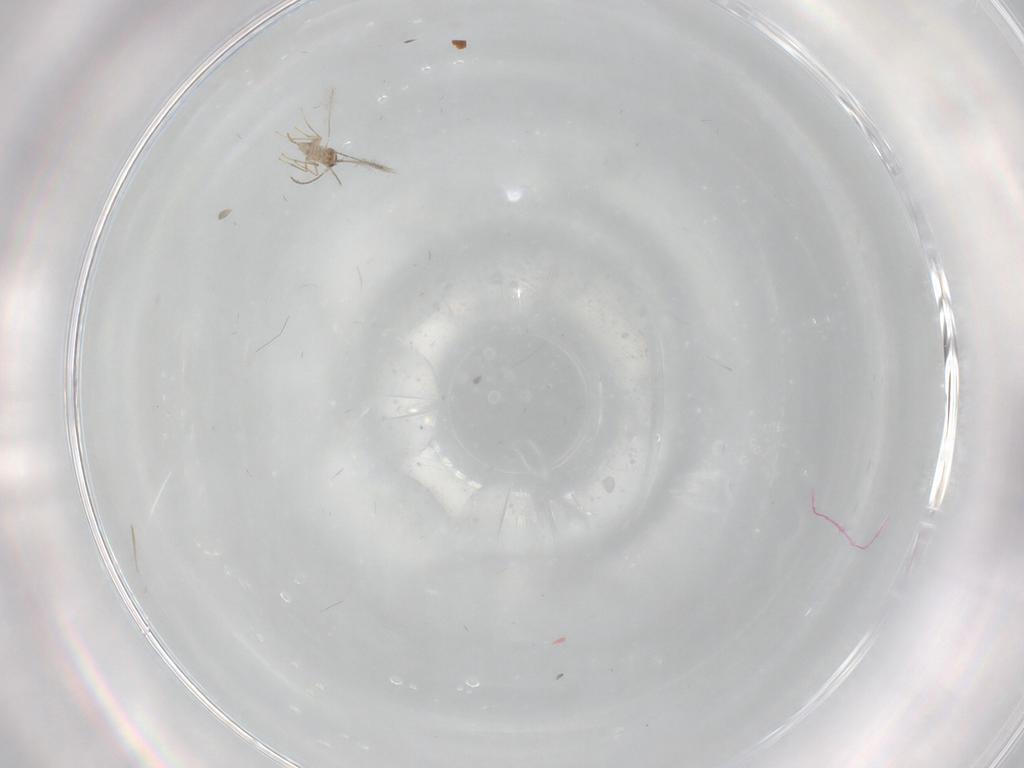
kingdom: Animalia
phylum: Arthropoda
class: Insecta
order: Hymenoptera
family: Mymaridae
